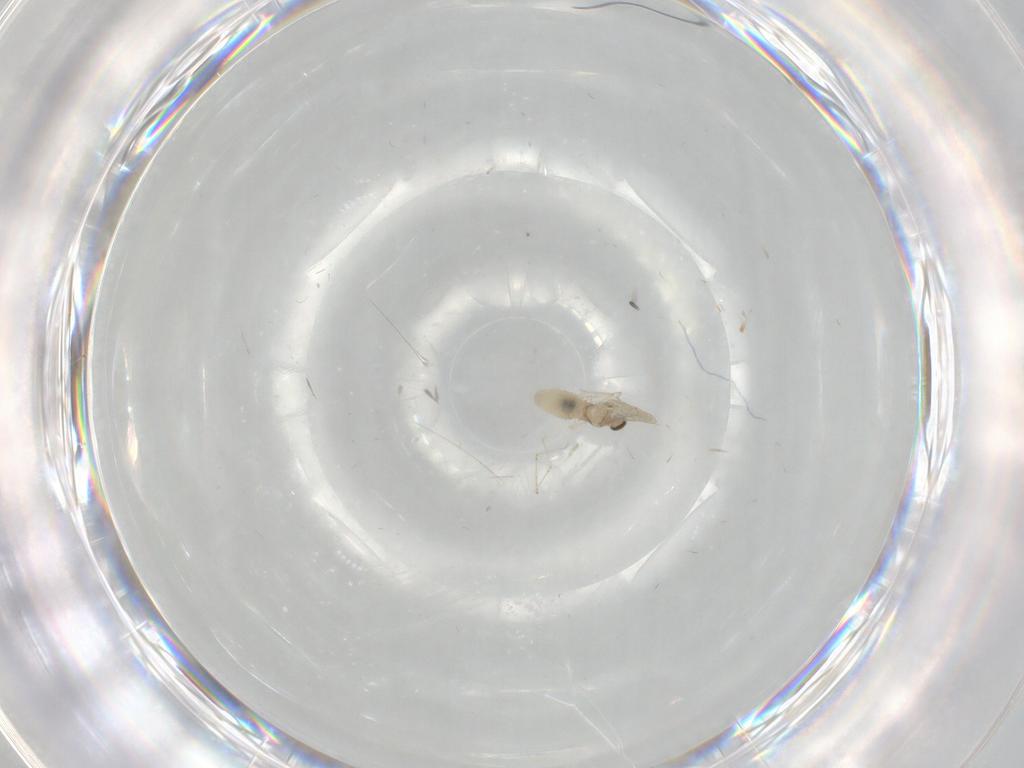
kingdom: Animalia
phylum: Arthropoda
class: Insecta
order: Diptera
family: Cecidomyiidae
